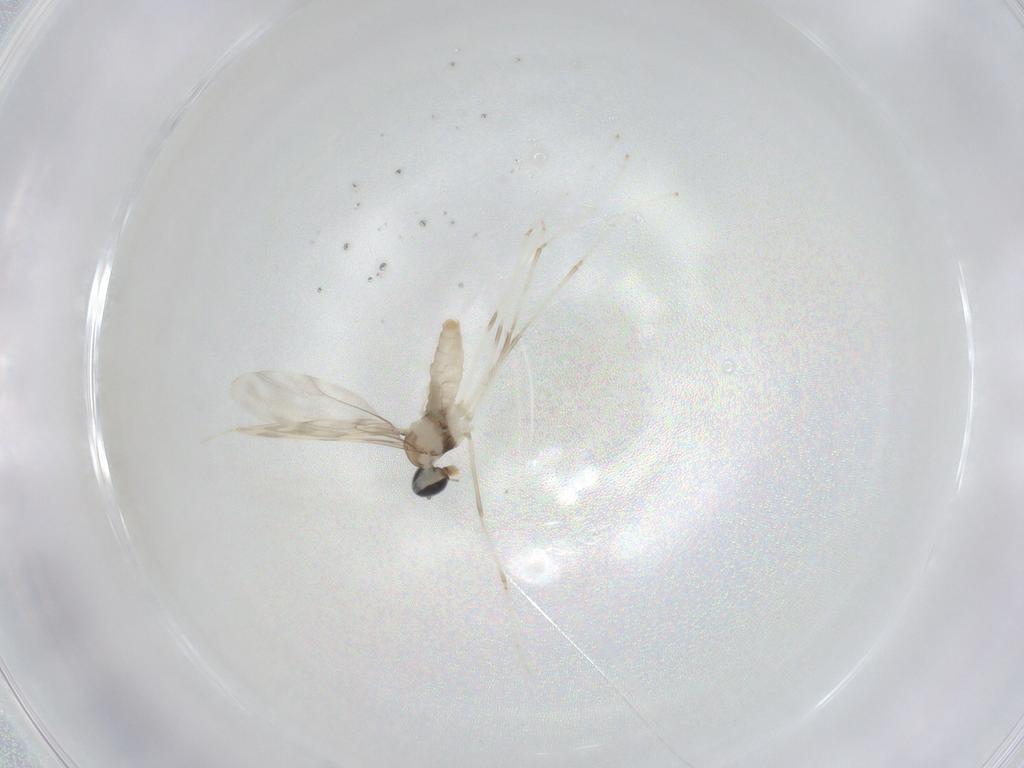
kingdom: Animalia
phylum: Arthropoda
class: Insecta
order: Diptera
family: Cecidomyiidae
